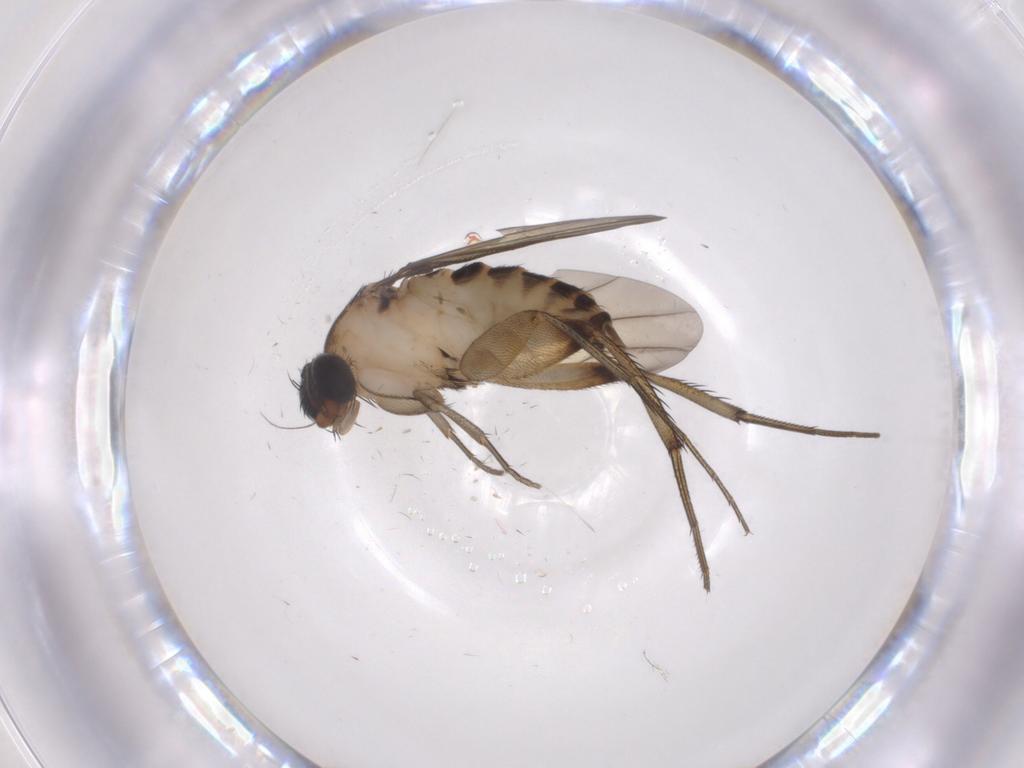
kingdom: Animalia
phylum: Arthropoda
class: Insecta
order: Diptera
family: Phoridae
